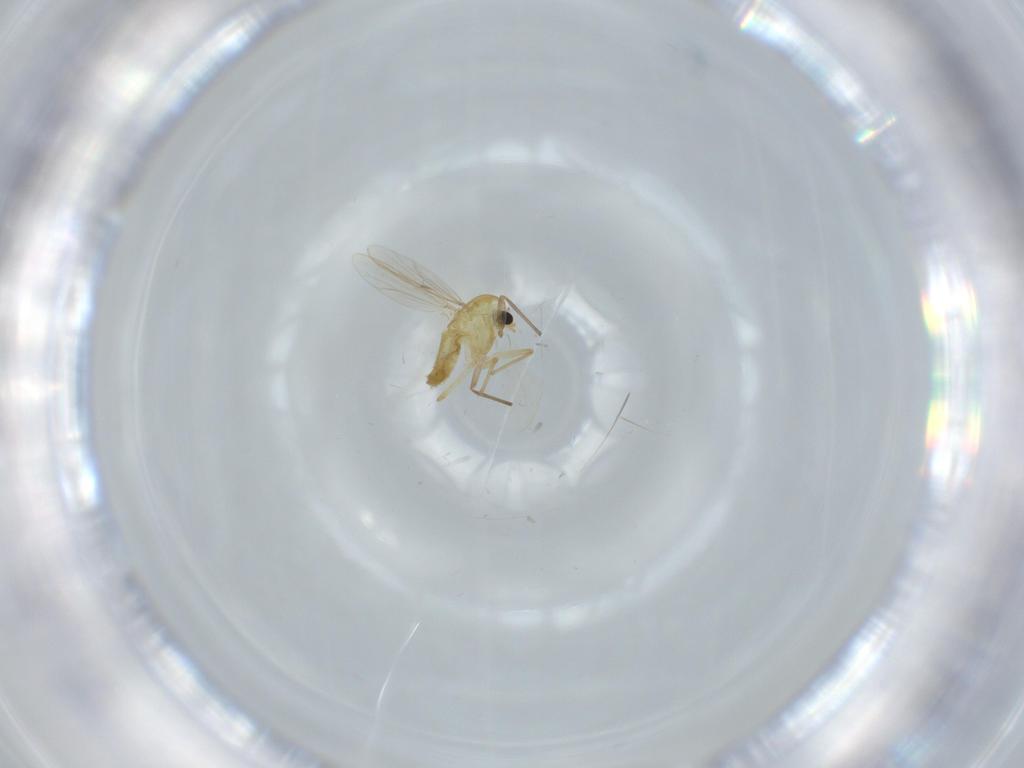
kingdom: Animalia
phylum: Arthropoda
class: Insecta
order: Diptera
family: Chironomidae
